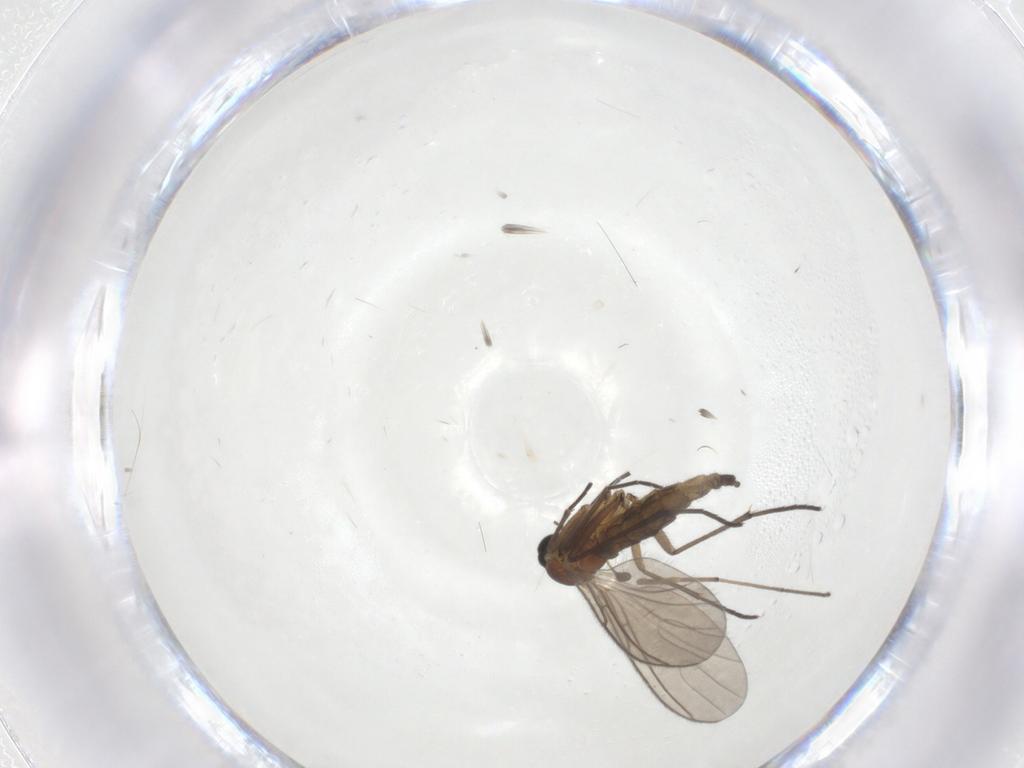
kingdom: Animalia
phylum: Arthropoda
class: Insecta
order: Diptera
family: Sciaridae
